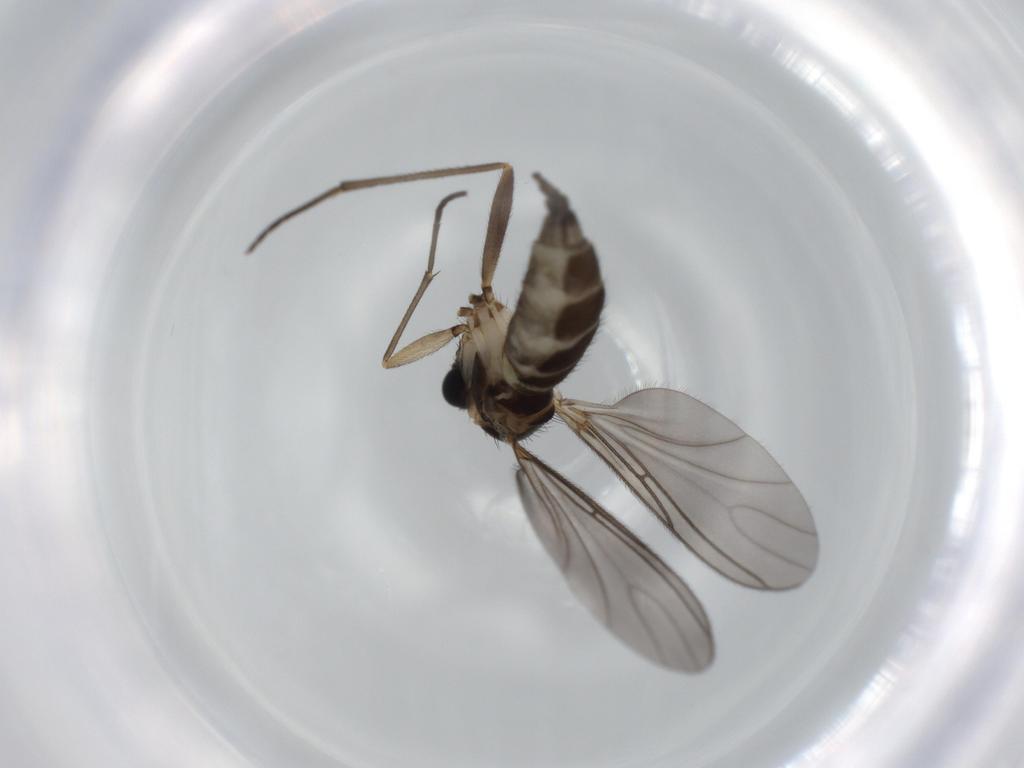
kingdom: Animalia
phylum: Arthropoda
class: Insecta
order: Diptera
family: Sciaridae
